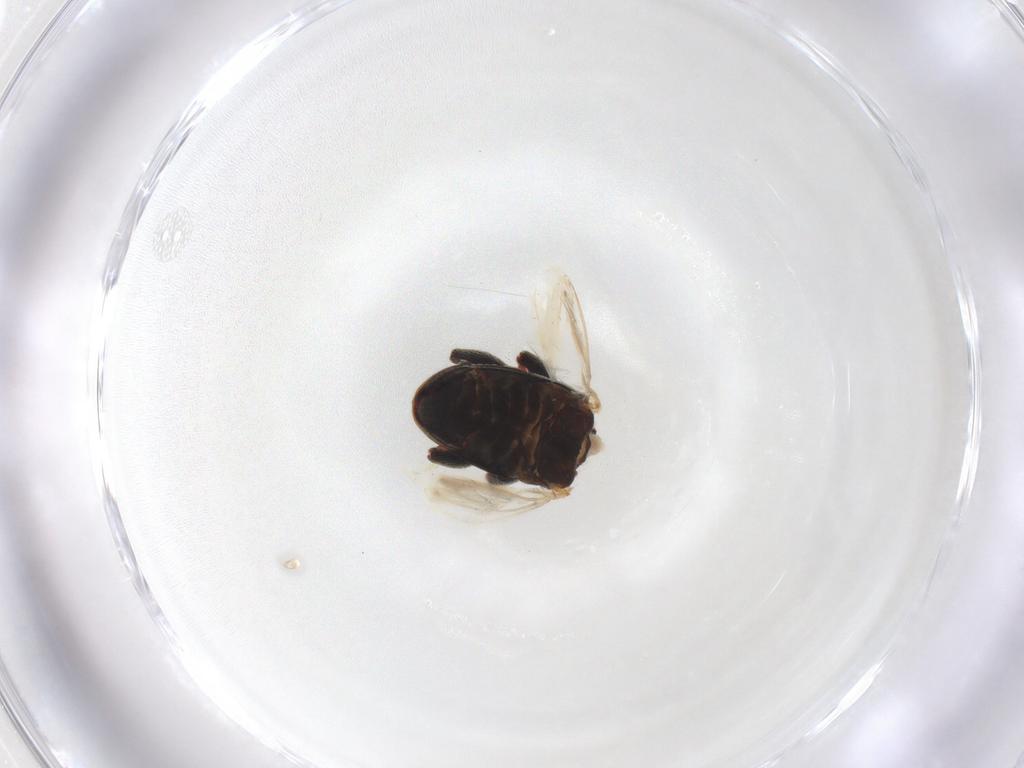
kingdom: Animalia
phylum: Arthropoda
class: Insecta
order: Coleoptera
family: Curculionidae
